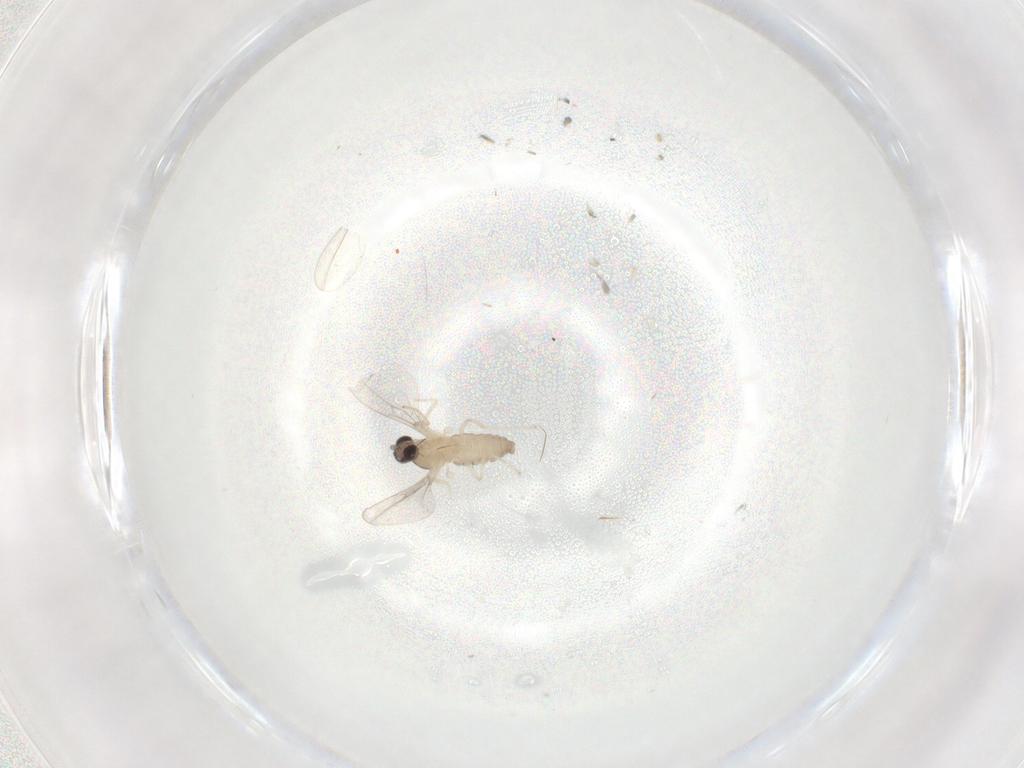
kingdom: Animalia
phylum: Arthropoda
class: Insecta
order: Diptera
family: Cecidomyiidae
